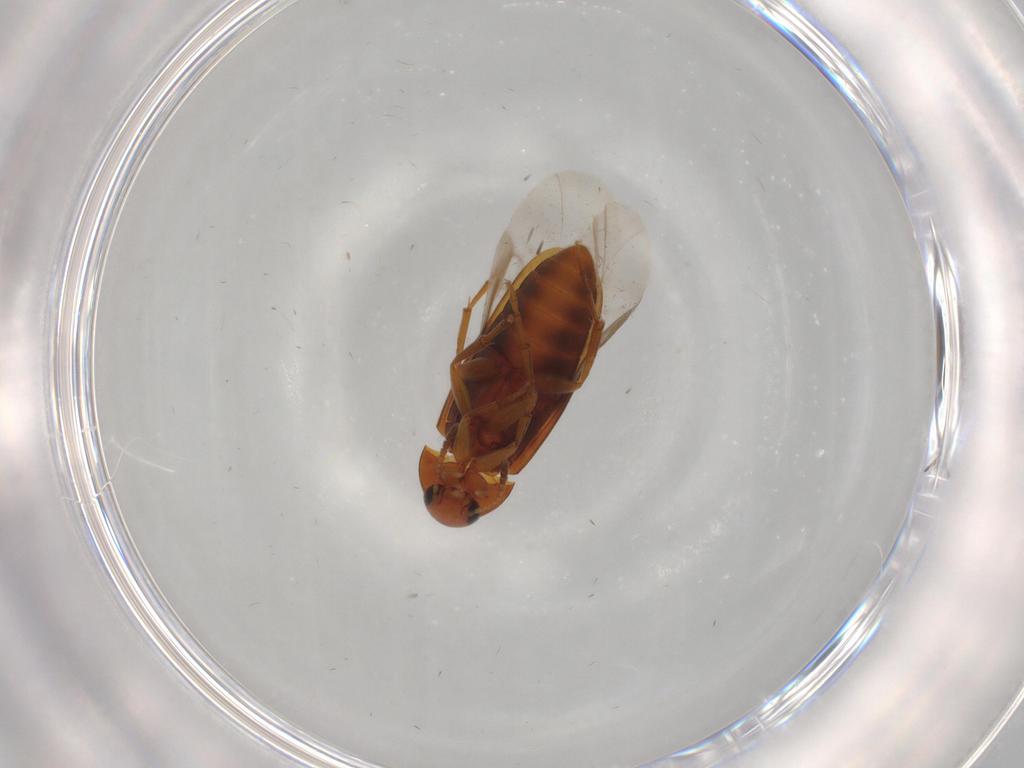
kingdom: Animalia
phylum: Arthropoda
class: Insecta
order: Coleoptera
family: Scraptiidae
